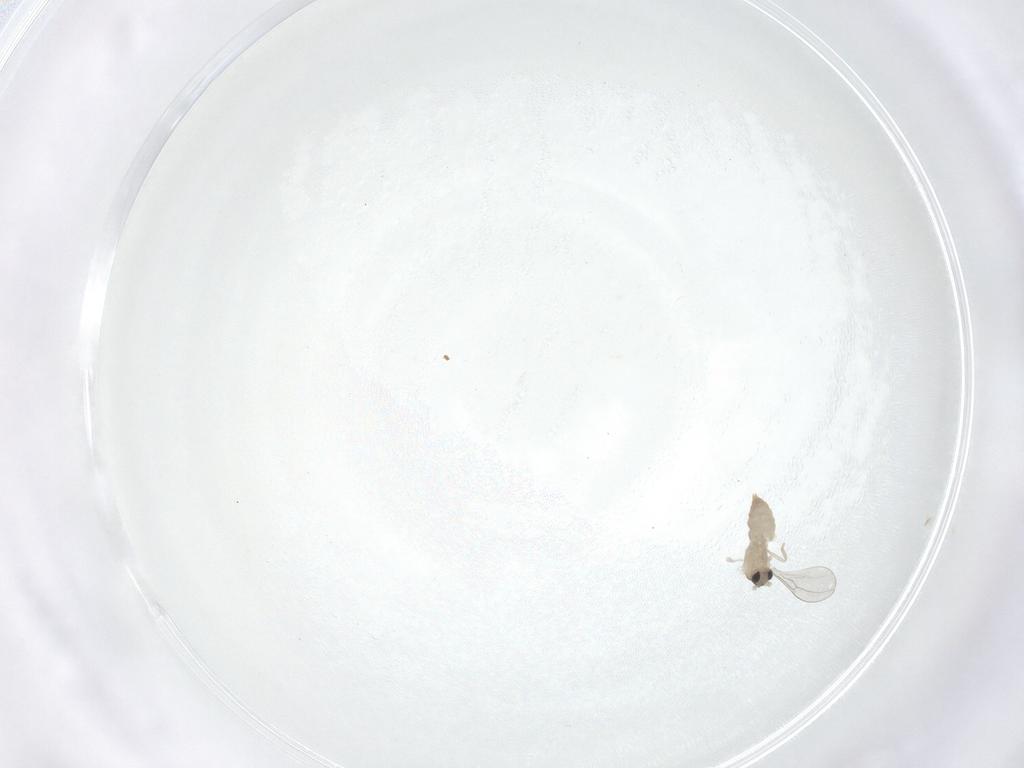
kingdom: Animalia
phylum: Arthropoda
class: Insecta
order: Diptera
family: Cecidomyiidae
